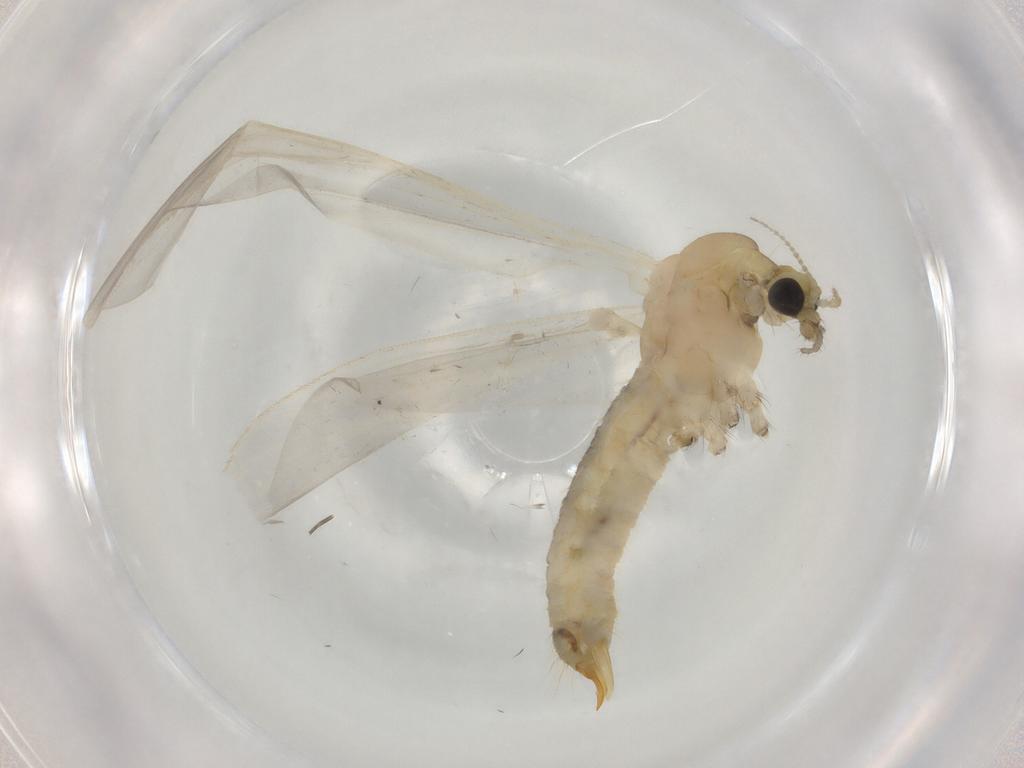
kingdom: Animalia
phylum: Arthropoda
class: Insecta
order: Diptera
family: Limoniidae
